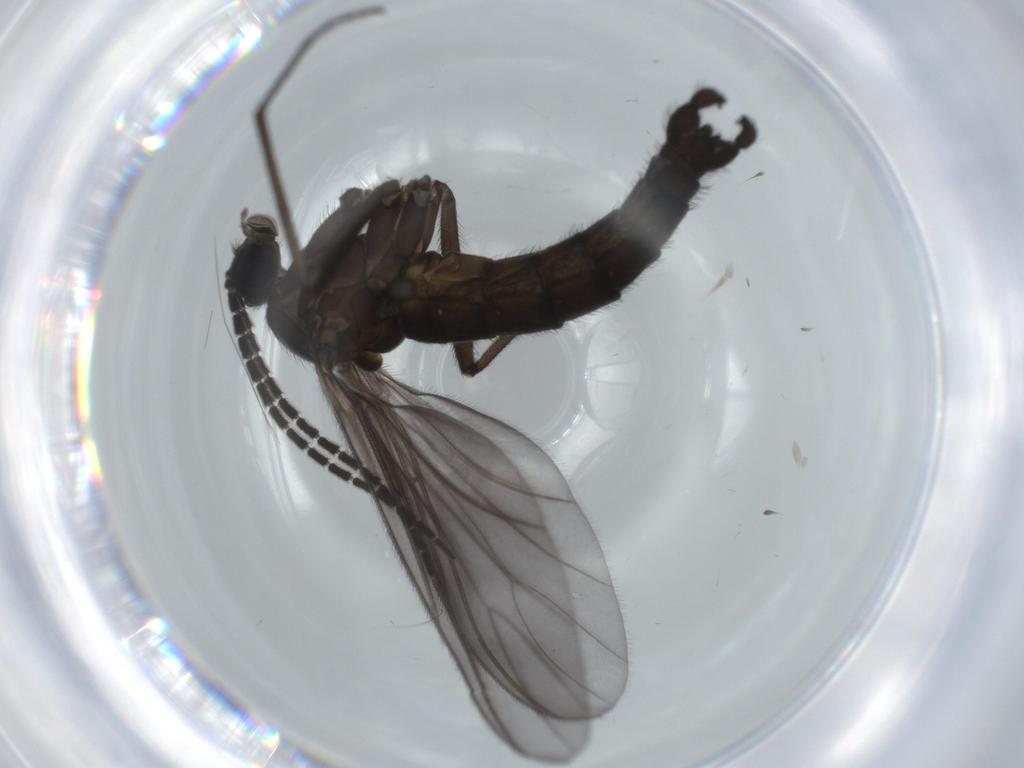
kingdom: Animalia
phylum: Arthropoda
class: Insecta
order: Diptera
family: Sciaridae
